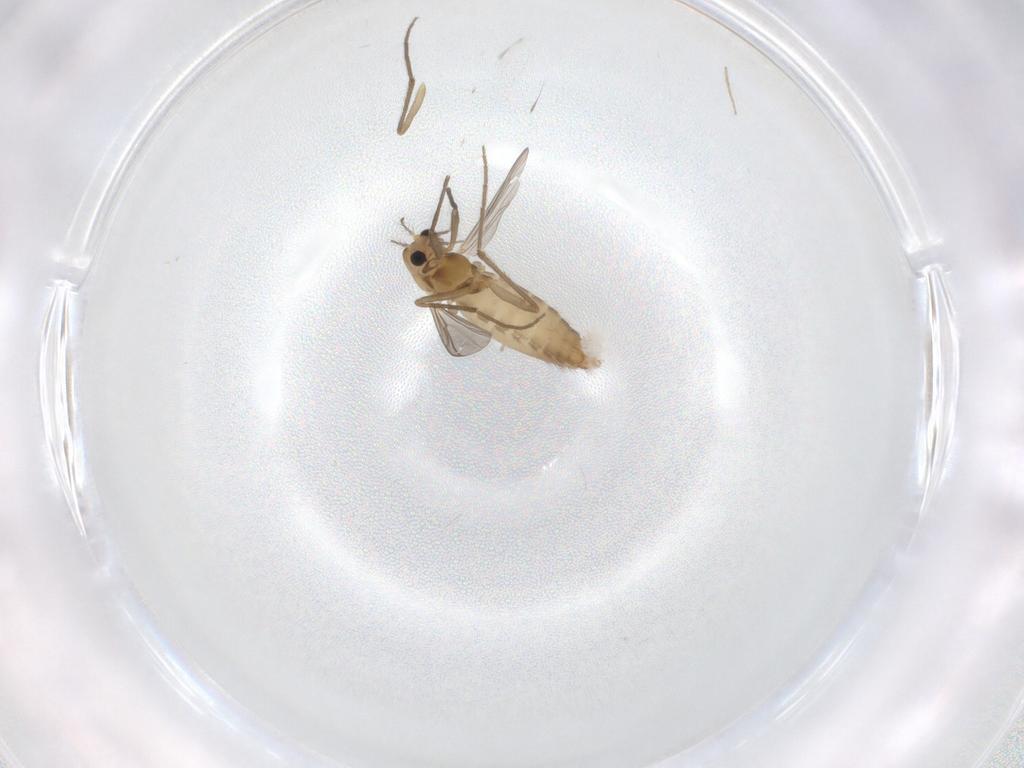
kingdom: Animalia
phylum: Arthropoda
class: Insecta
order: Diptera
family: Chironomidae
